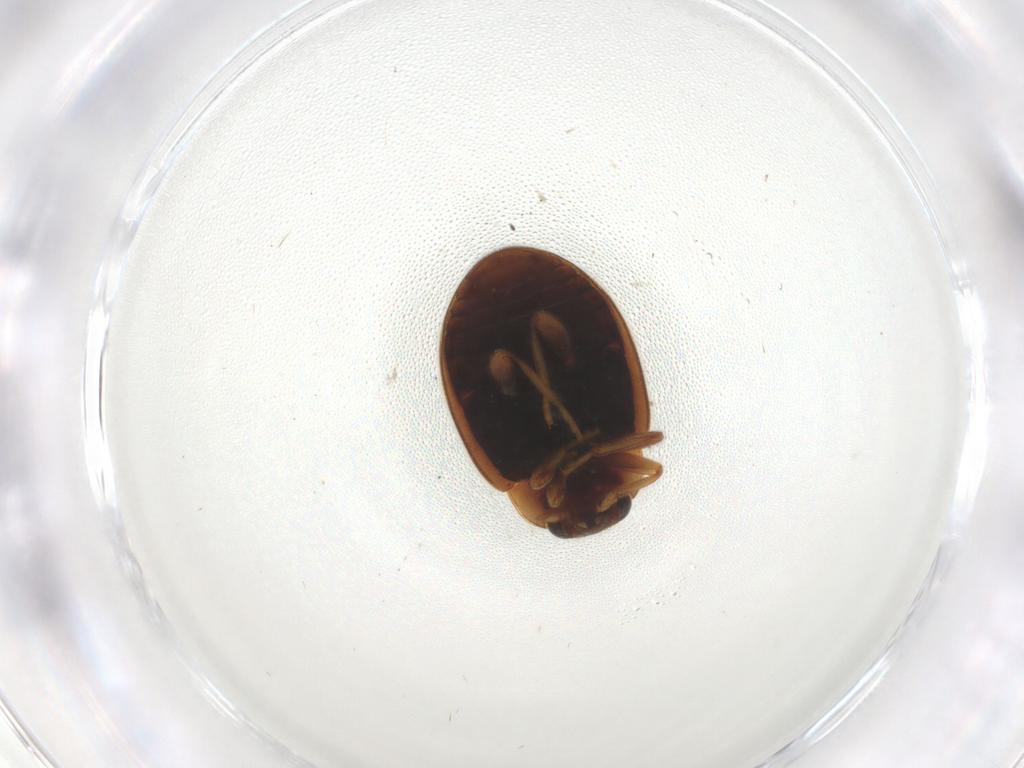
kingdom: Animalia
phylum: Arthropoda
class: Insecta
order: Coleoptera
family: Coccinellidae
